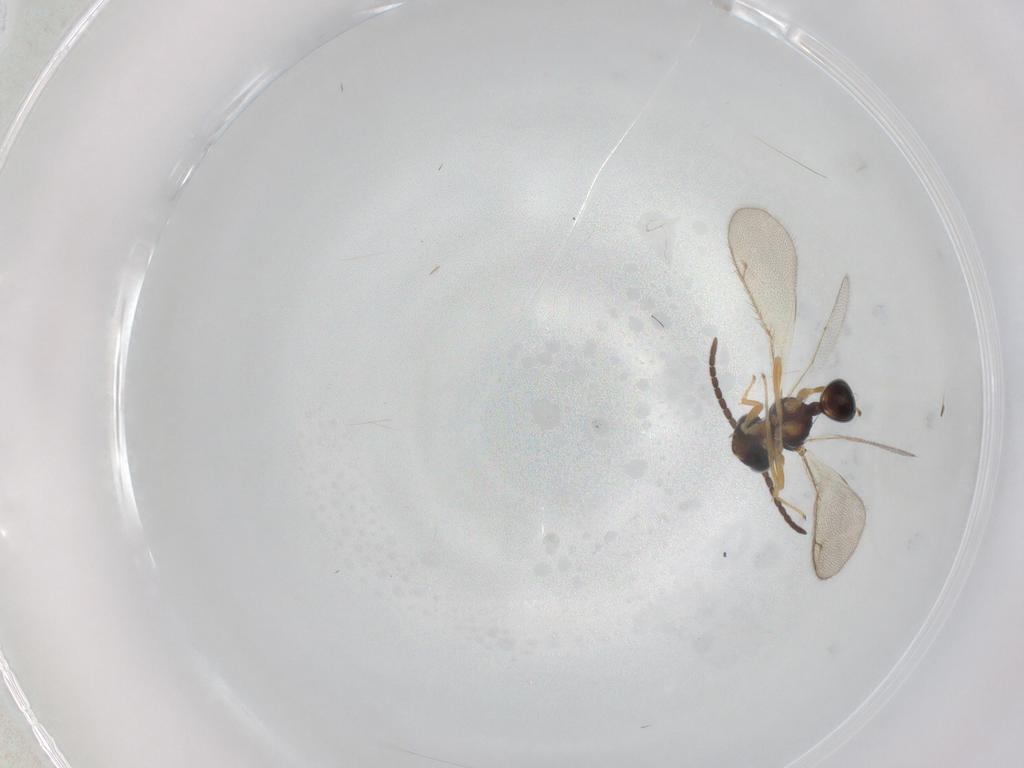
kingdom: Animalia
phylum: Arthropoda
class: Insecta
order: Hymenoptera
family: Diparidae
